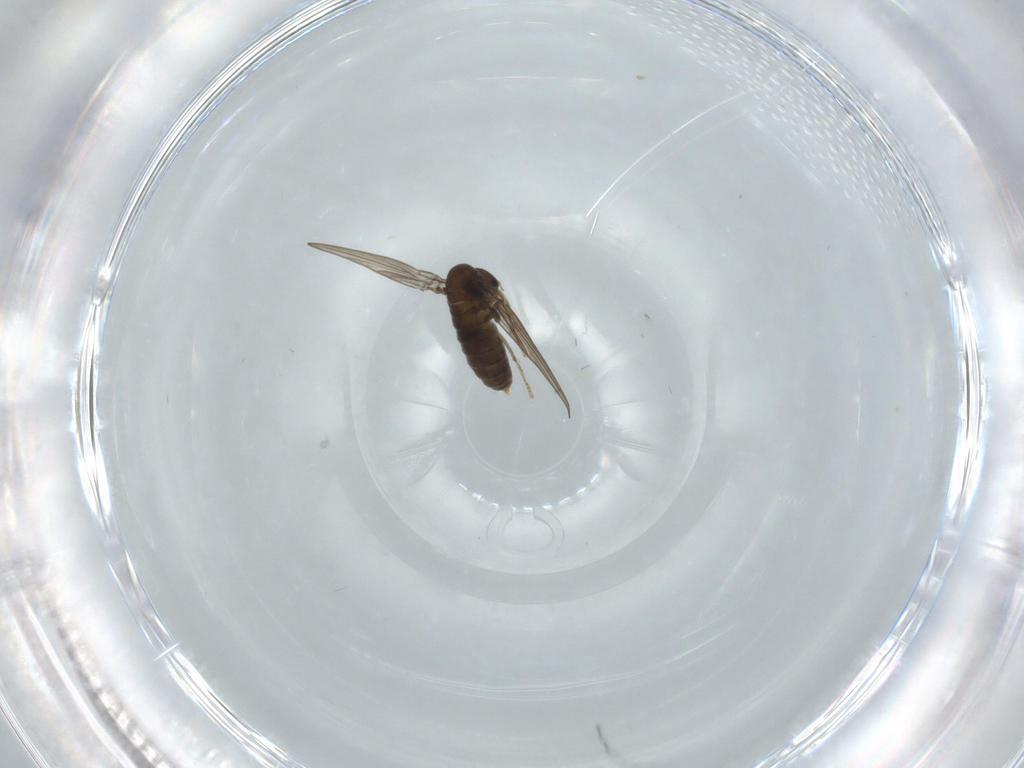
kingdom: Animalia
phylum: Arthropoda
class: Insecta
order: Diptera
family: Psychodidae
